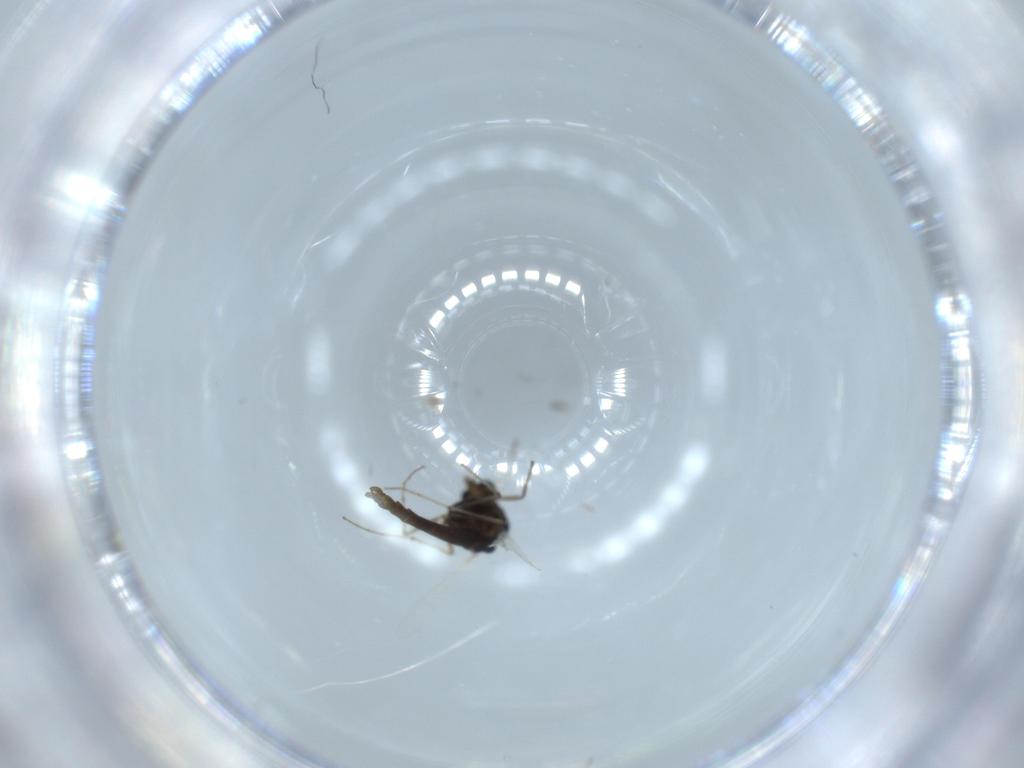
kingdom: Animalia
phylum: Arthropoda
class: Insecta
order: Diptera
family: Chironomidae
